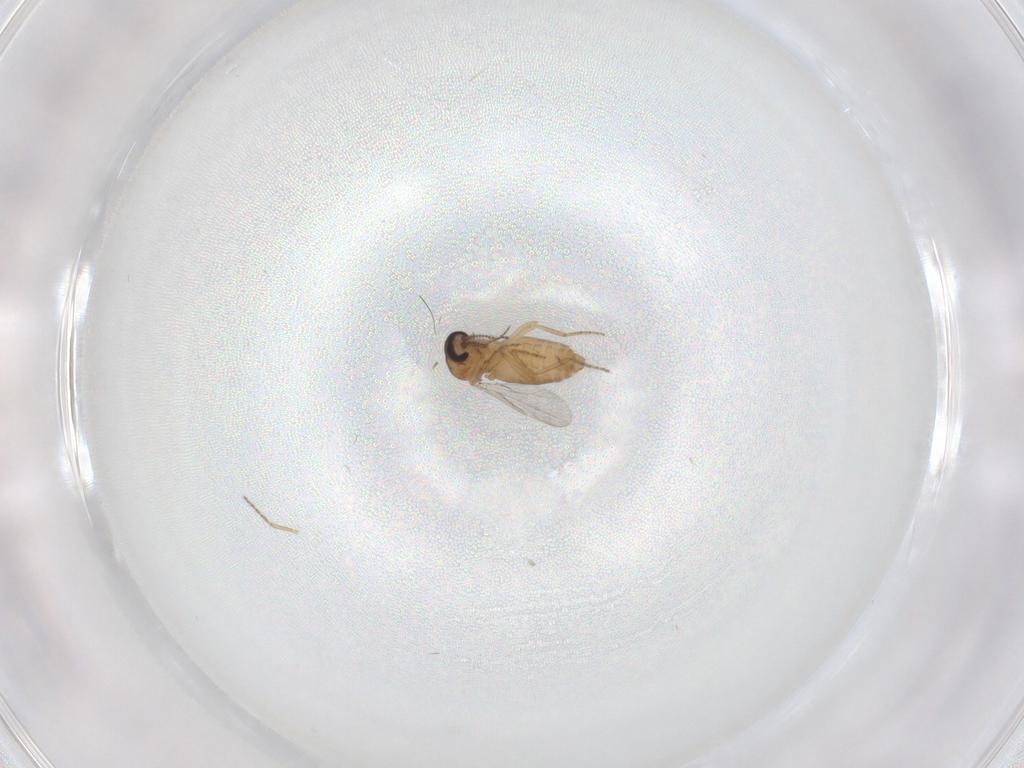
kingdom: Animalia
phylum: Arthropoda
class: Insecta
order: Diptera
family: Ceratopogonidae
